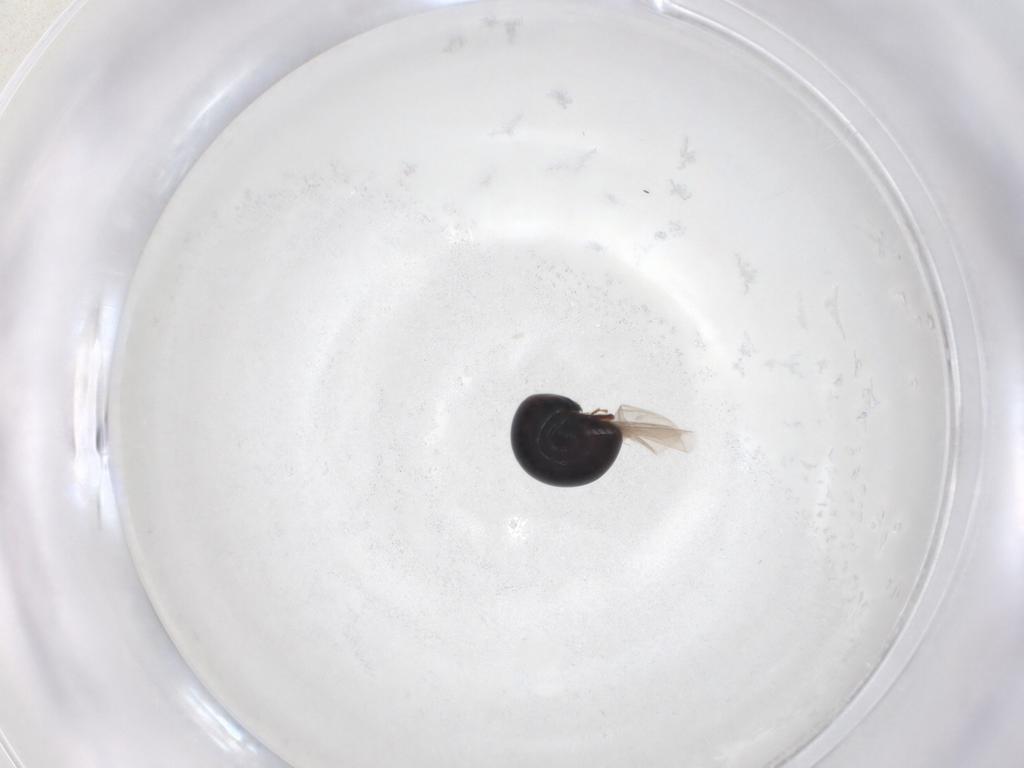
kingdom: Animalia
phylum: Arthropoda
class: Insecta
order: Coleoptera
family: Cybocephalidae
